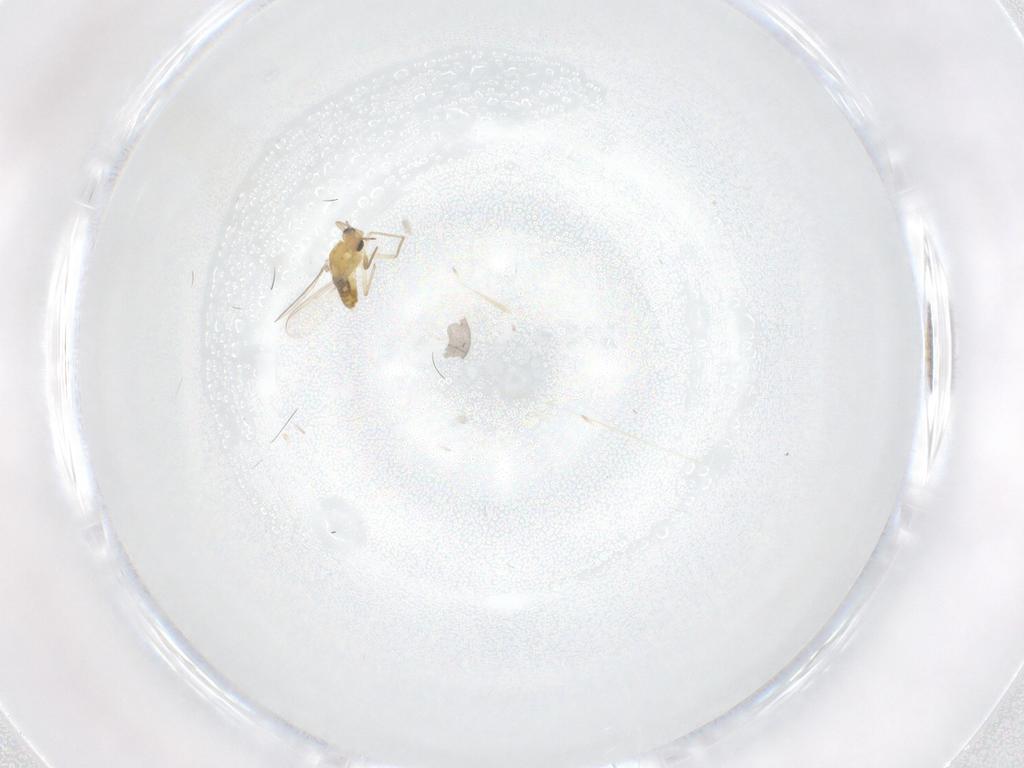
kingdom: Animalia
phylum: Arthropoda
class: Insecta
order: Diptera
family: Chironomidae
